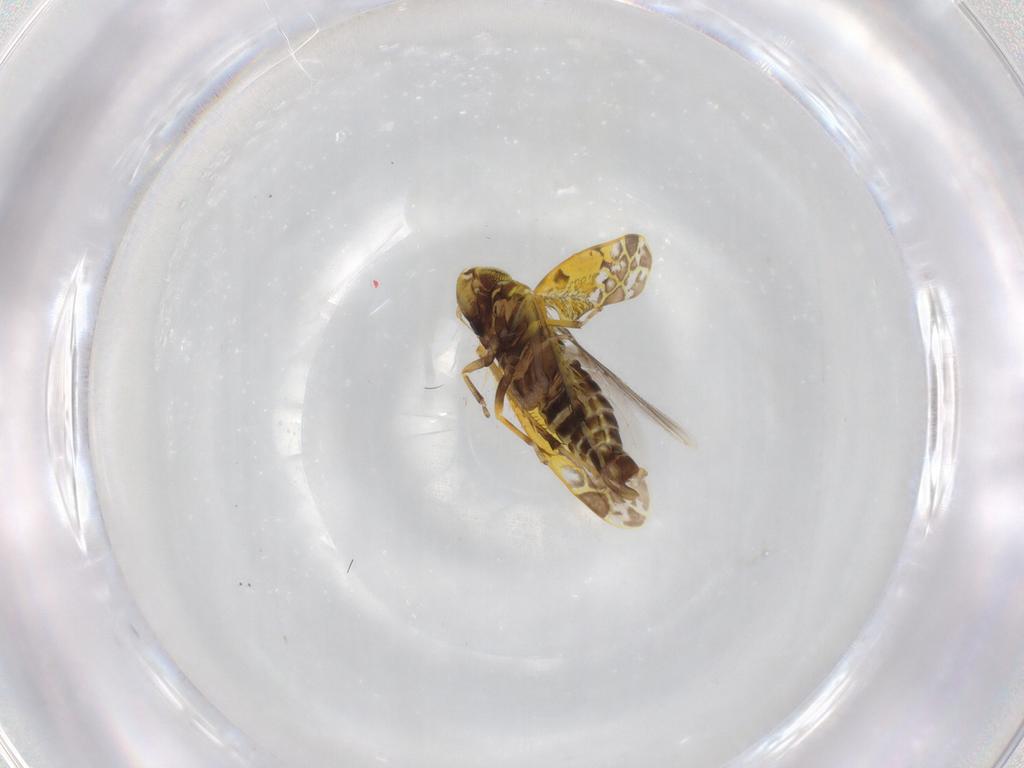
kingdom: Animalia
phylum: Arthropoda
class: Insecta
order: Hemiptera
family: Cicadellidae
